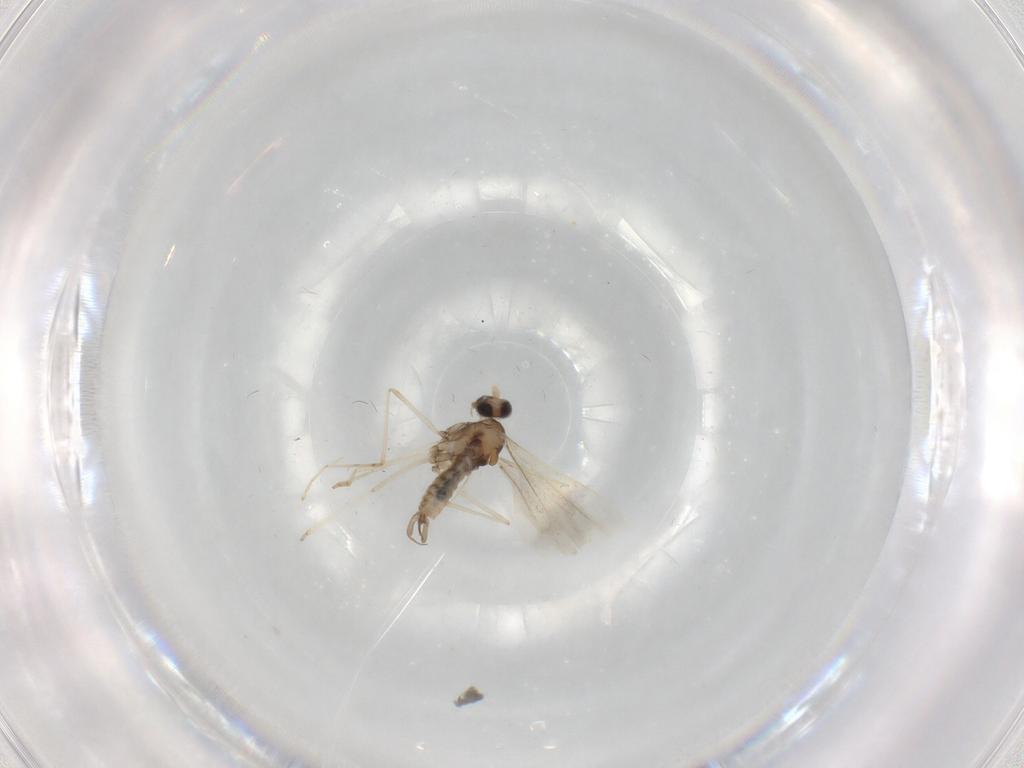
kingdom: Animalia
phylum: Arthropoda
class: Insecta
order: Diptera
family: Cecidomyiidae
